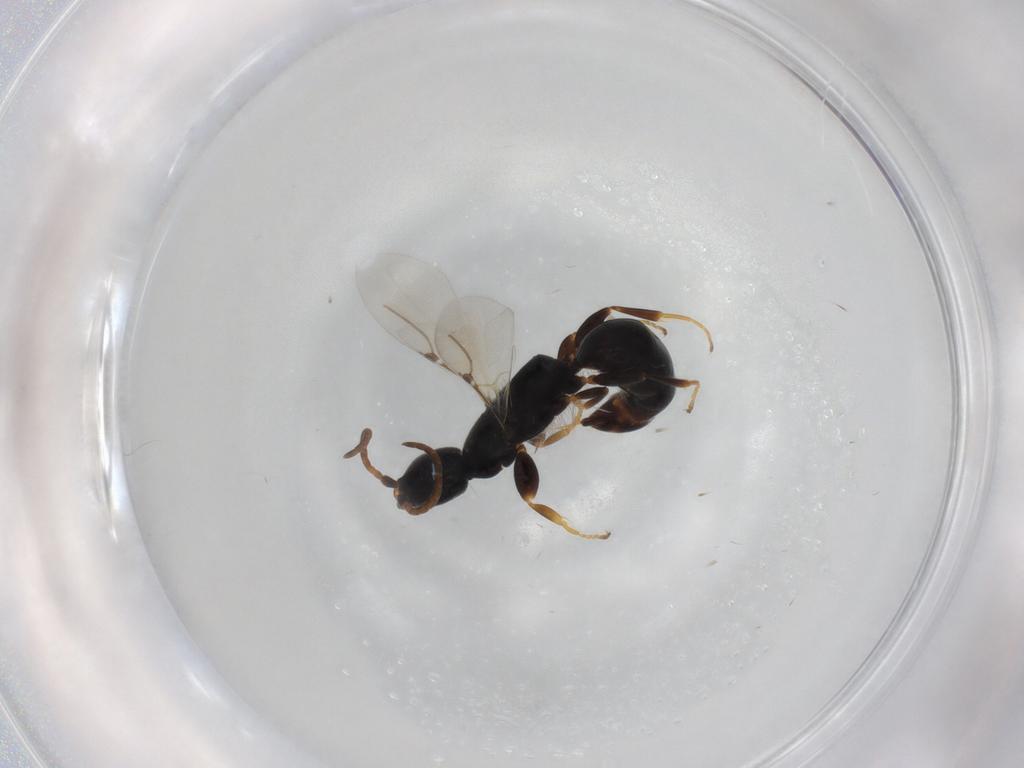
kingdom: Animalia
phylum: Arthropoda
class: Insecta
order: Hymenoptera
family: Bethylidae
